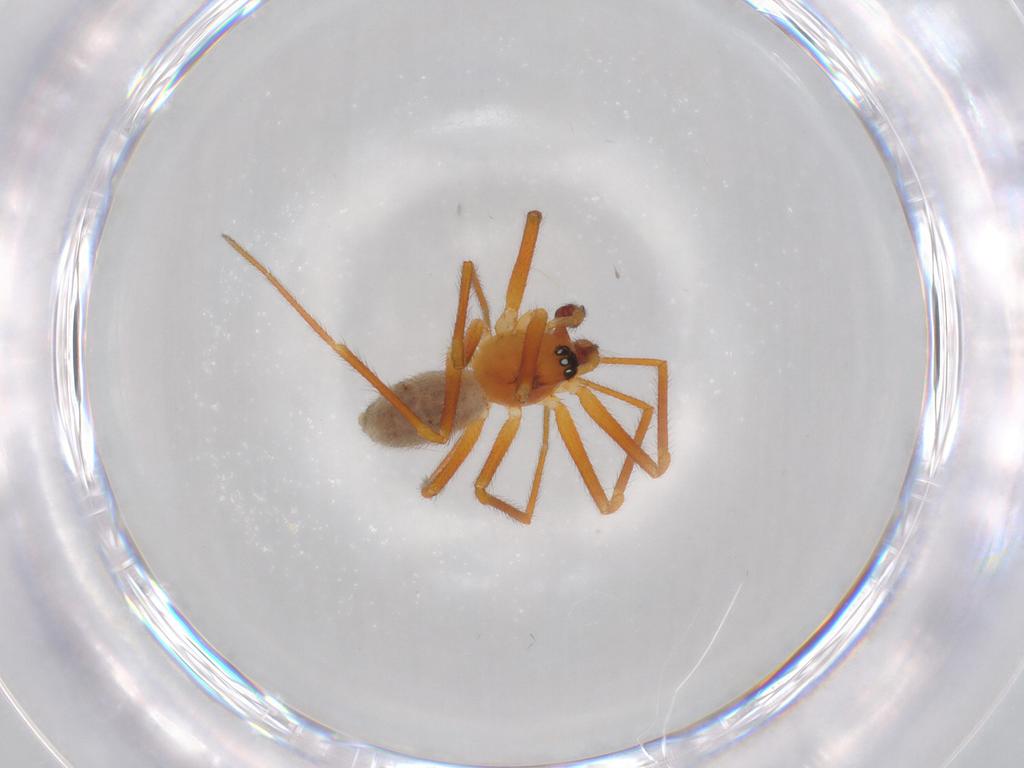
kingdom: Animalia
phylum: Arthropoda
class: Arachnida
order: Araneae
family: Linyphiidae
